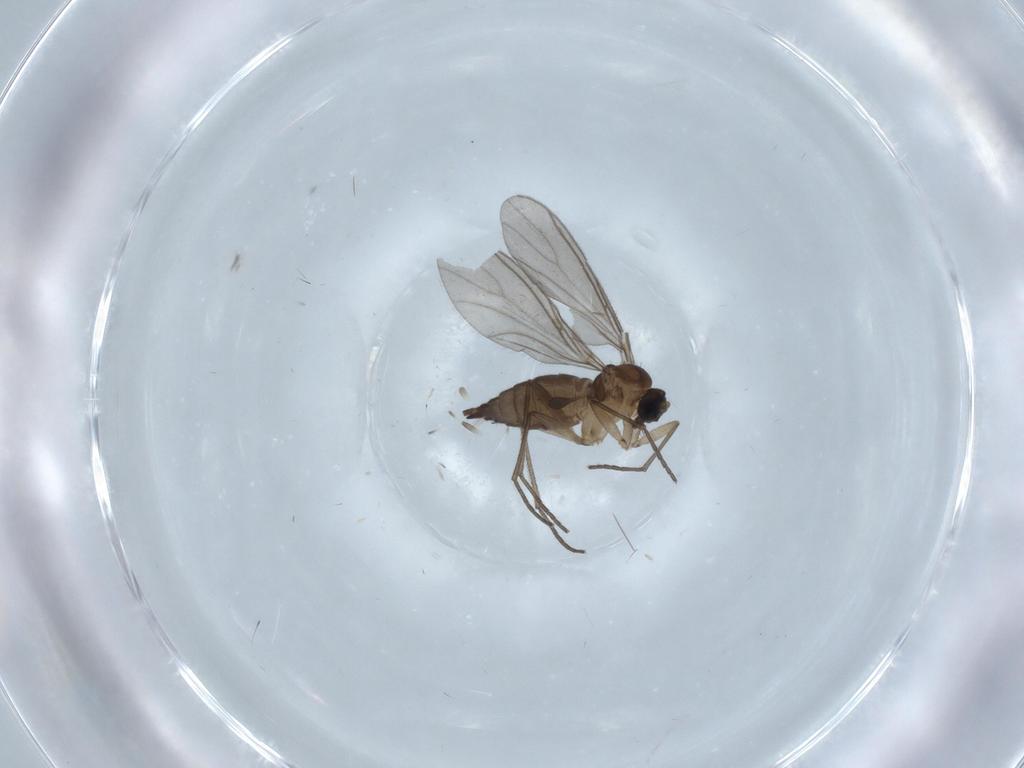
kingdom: Animalia
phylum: Arthropoda
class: Insecta
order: Diptera
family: Sciaridae
